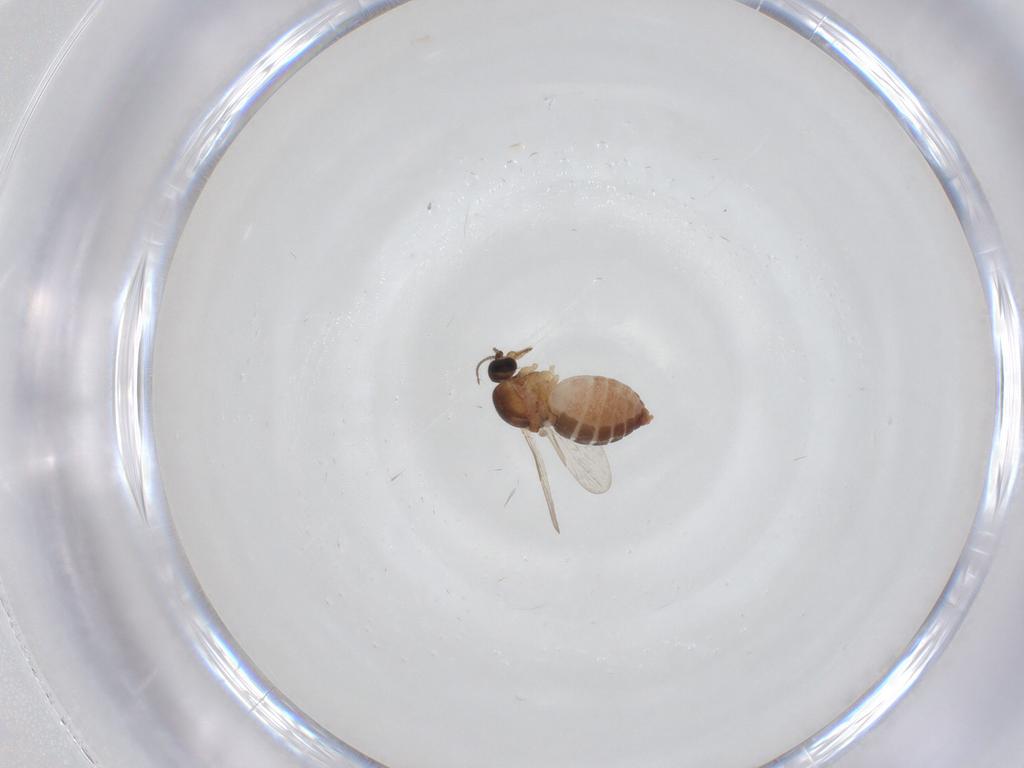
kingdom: Animalia
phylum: Arthropoda
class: Insecta
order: Diptera
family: Ceratopogonidae
